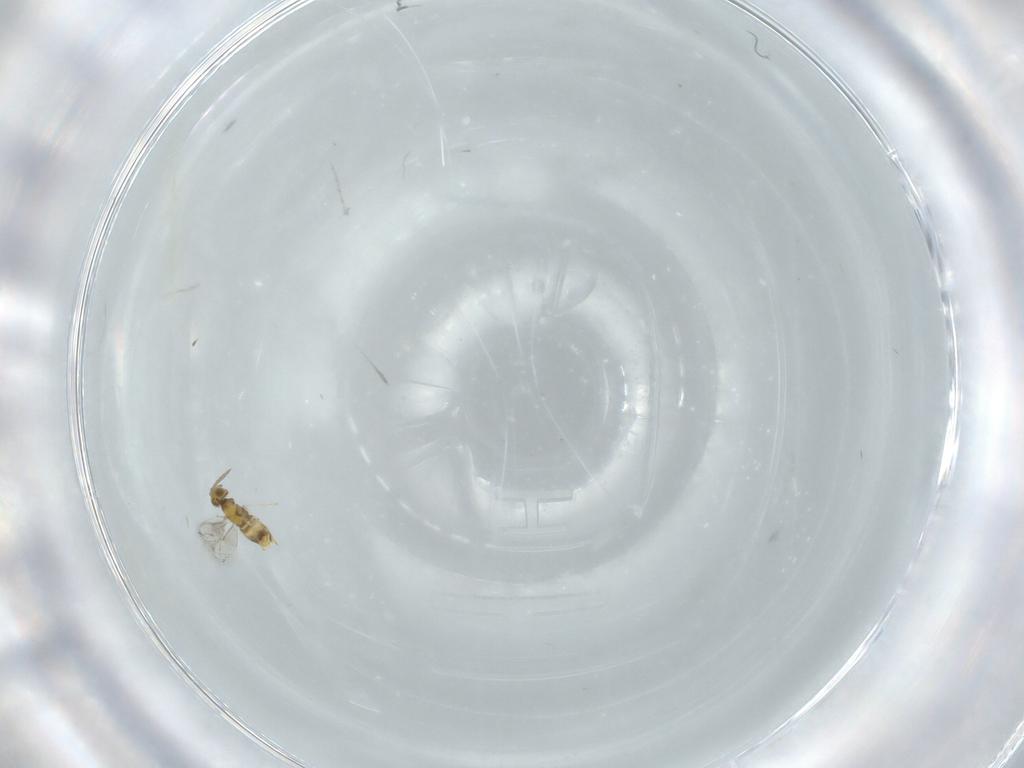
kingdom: Animalia
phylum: Arthropoda
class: Insecta
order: Hymenoptera
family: Aphelinidae
